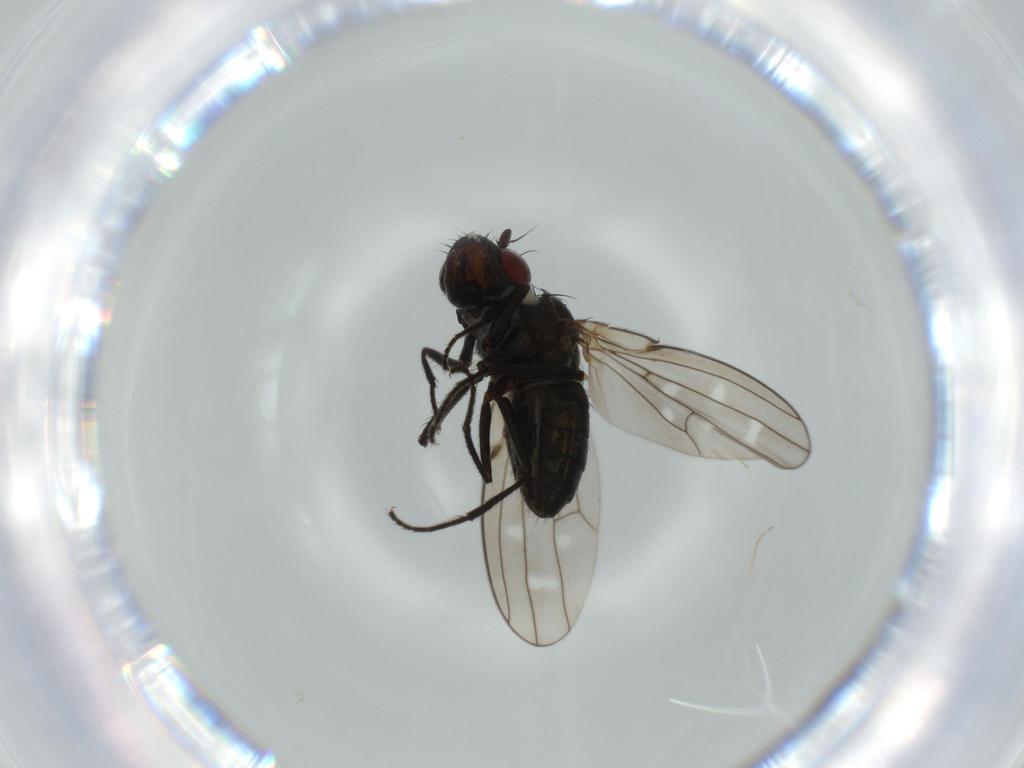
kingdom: Animalia
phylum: Arthropoda
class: Insecta
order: Diptera
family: Ephydridae
